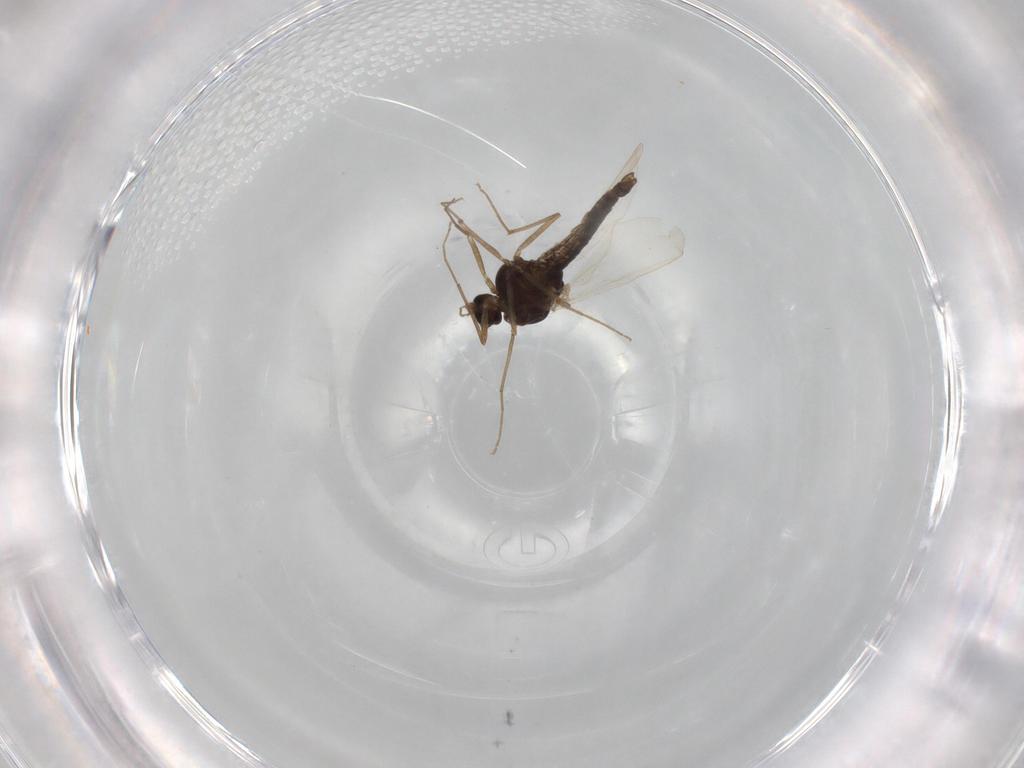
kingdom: Animalia
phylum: Arthropoda
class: Insecta
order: Diptera
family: Chironomidae
